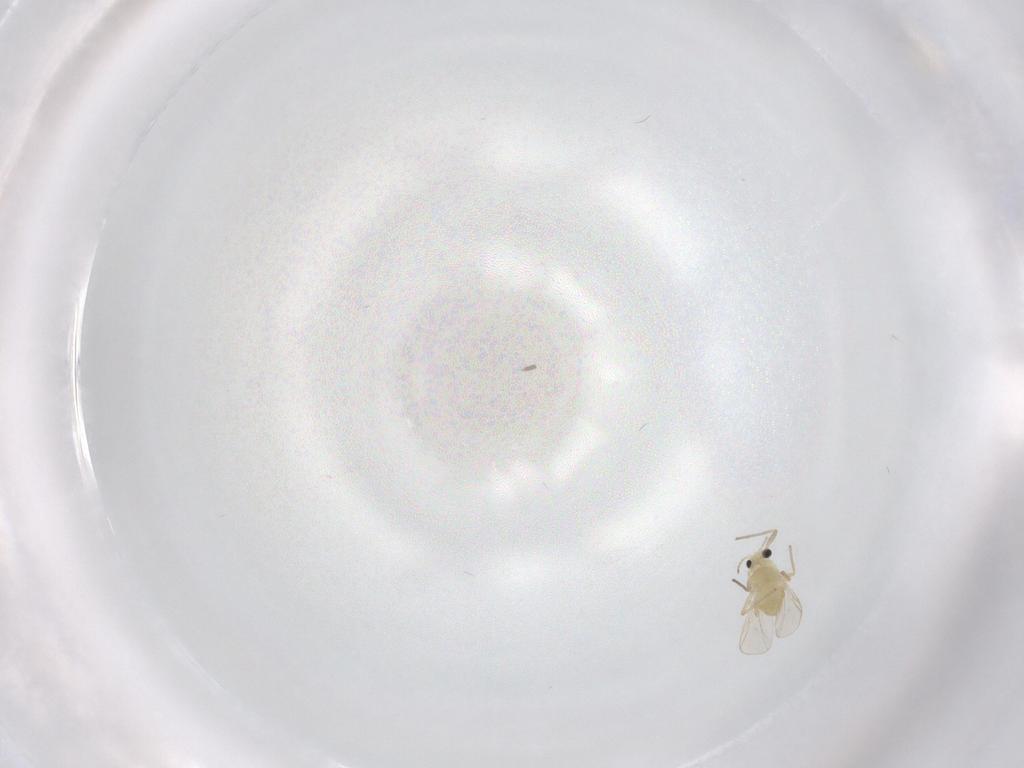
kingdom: Animalia
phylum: Arthropoda
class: Insecta
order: Diptera
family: Chironomidae
